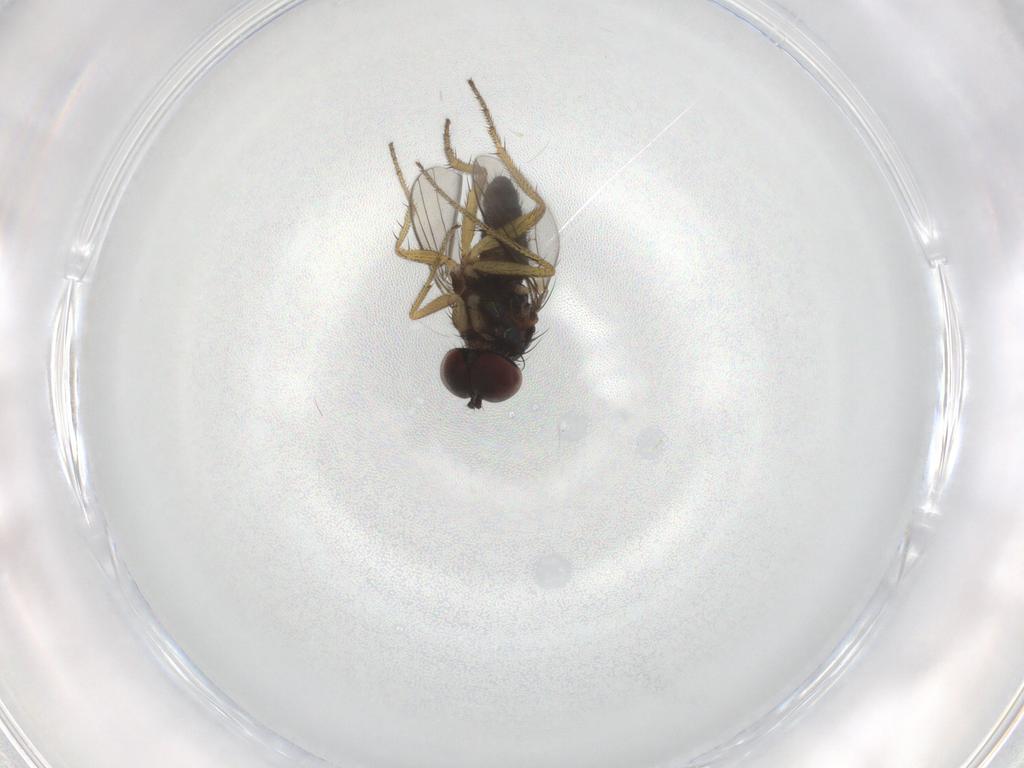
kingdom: Animalia
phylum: Arthropoda
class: Insecta
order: Diptera
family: Chironomidae
